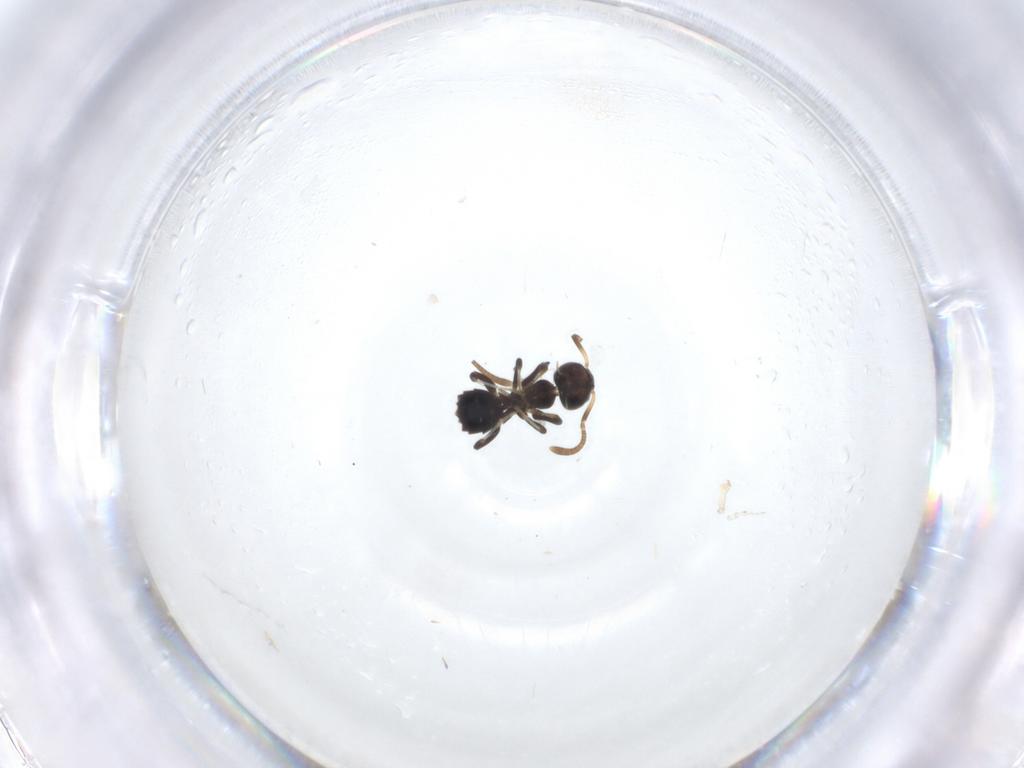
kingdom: Animalia
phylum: Arthropoda
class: Insecta
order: Hymenoptera
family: Formicidae
